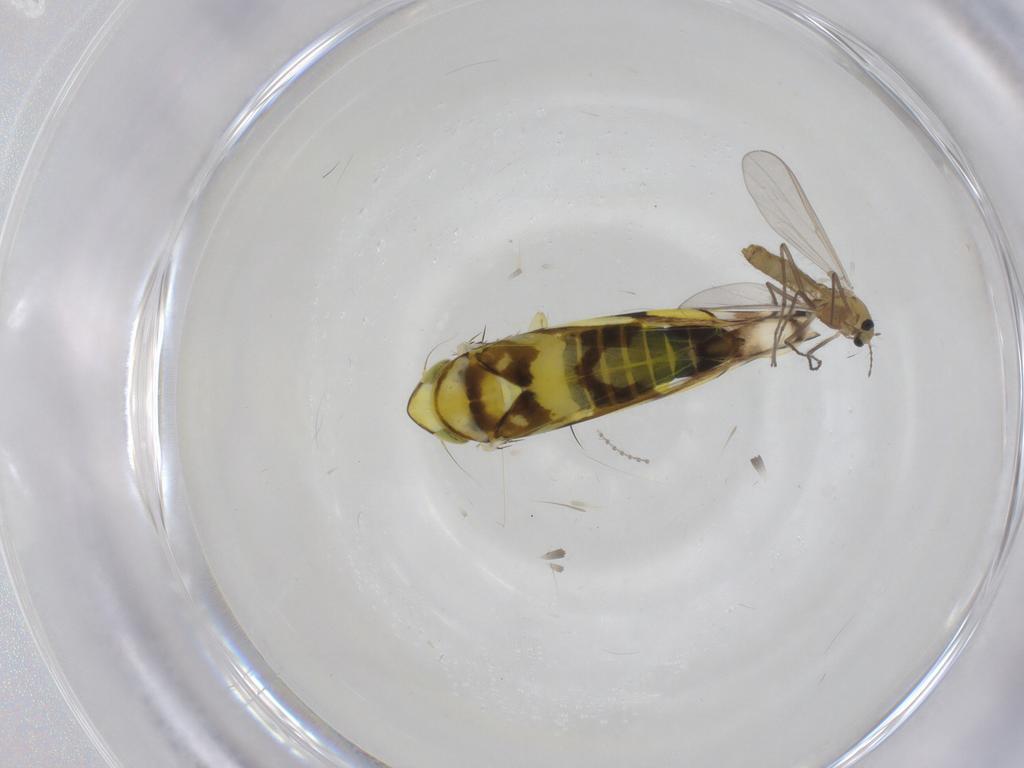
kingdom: Animalia
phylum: Arthropoda
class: Insecta
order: Diptera
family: Chironomidae
